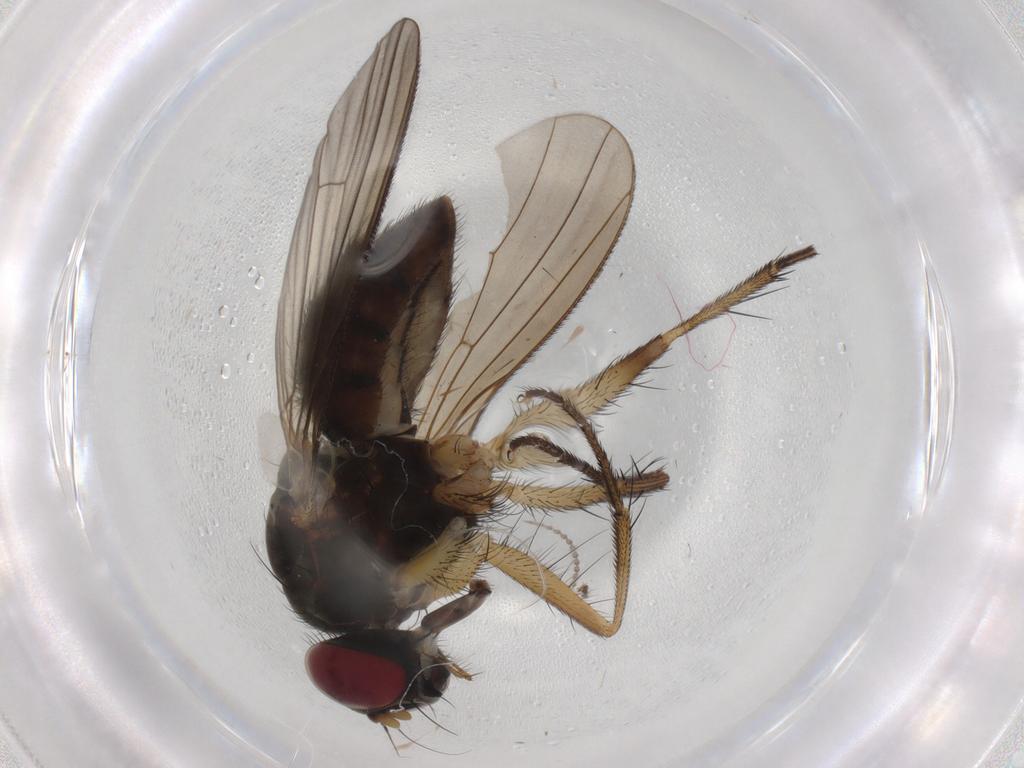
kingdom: Animalia
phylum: Arthropoda
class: Insecta
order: Diptera
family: Muscidae
